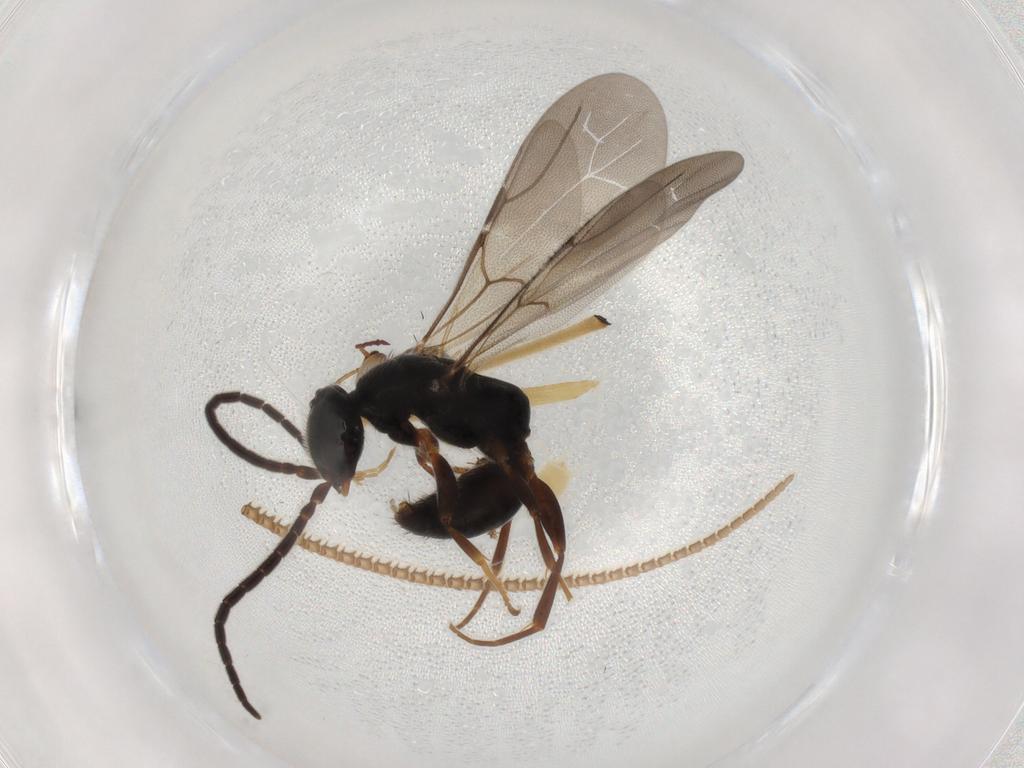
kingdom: Animalia
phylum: Arthropoda
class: Insecta
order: Hymenoptera
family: Bethylidae
